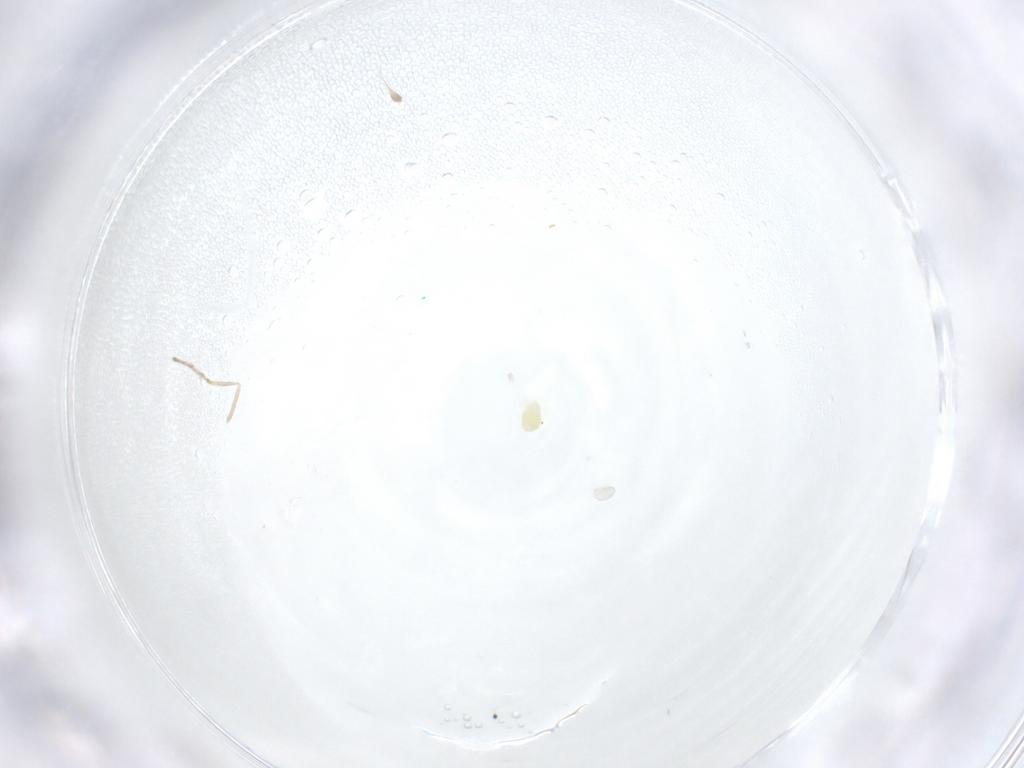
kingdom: Animalia
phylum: Arthropoda
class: Insecta
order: Diptera
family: Sciaridae
